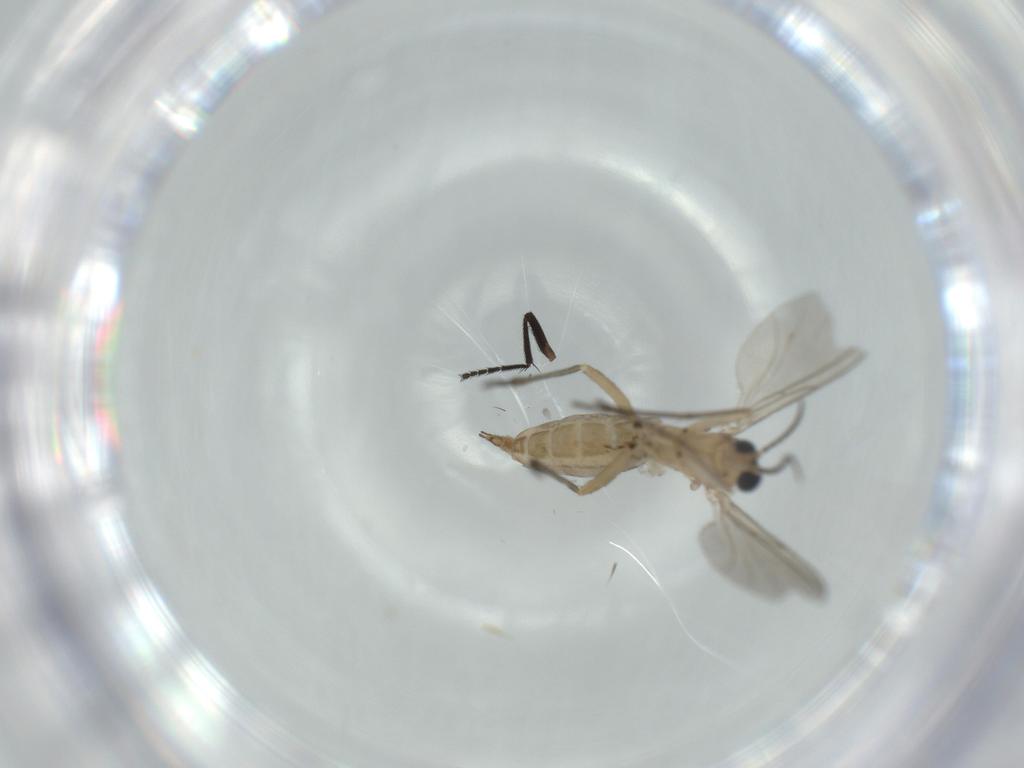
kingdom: Animalia
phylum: Arthropoda
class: Insecta
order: Diptera
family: Sciaridae
